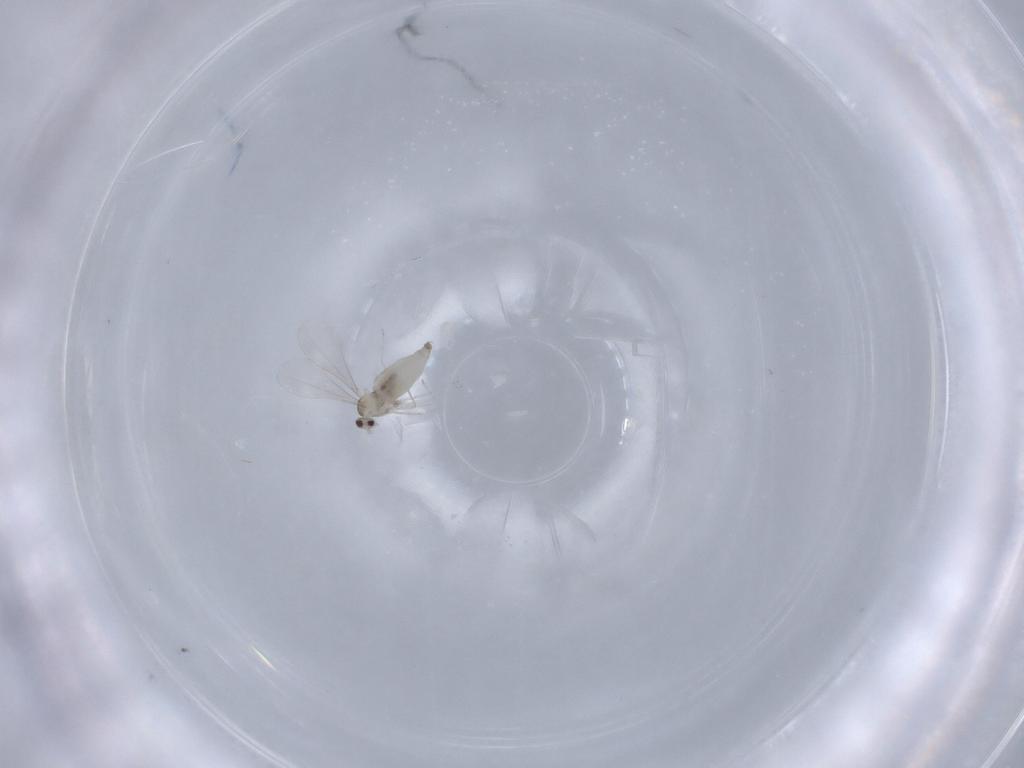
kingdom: Animalia
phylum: Arthropoda
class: Insecta
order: Diptera
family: Cecidomyiidae
